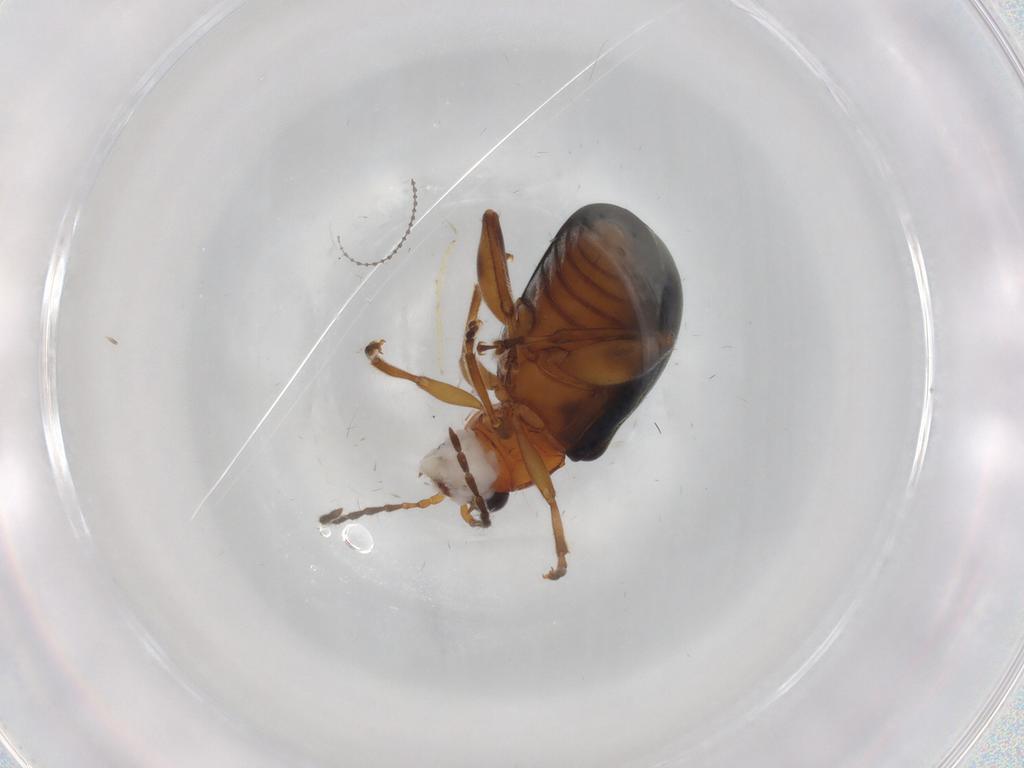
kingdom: Animalia
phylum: Arthropoda
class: Insecta
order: Coleoptera
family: Chrysomelidae
